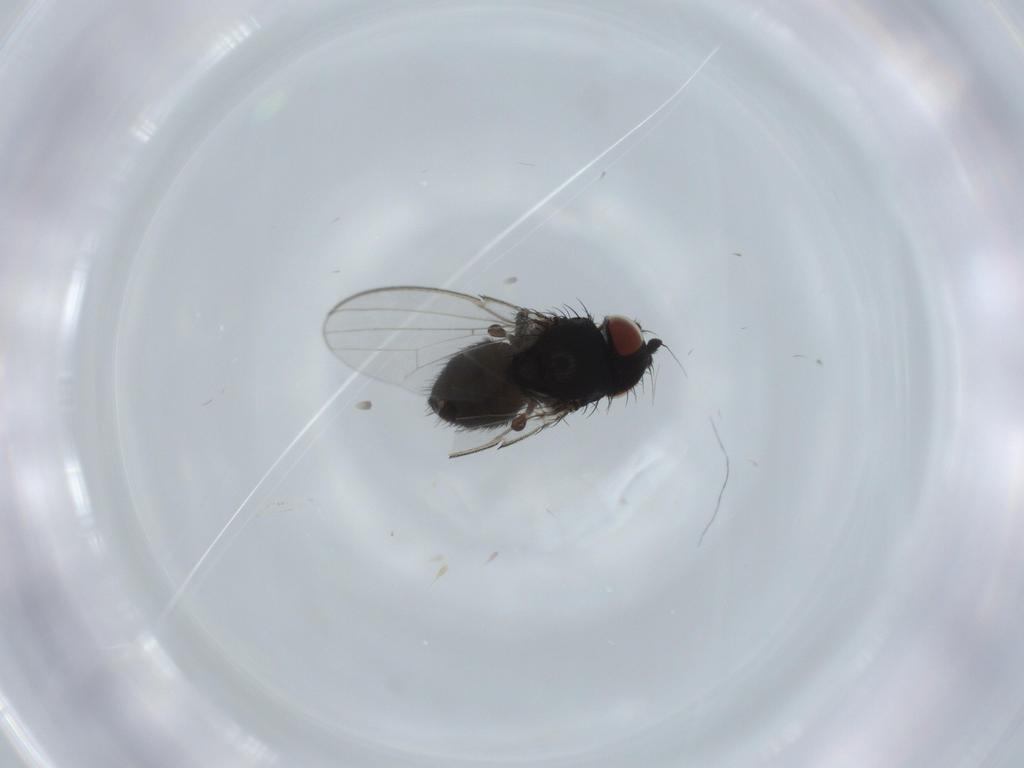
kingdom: Animalia
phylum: Arthropoda
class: Insecta
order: Diptera
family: Milichiidae
